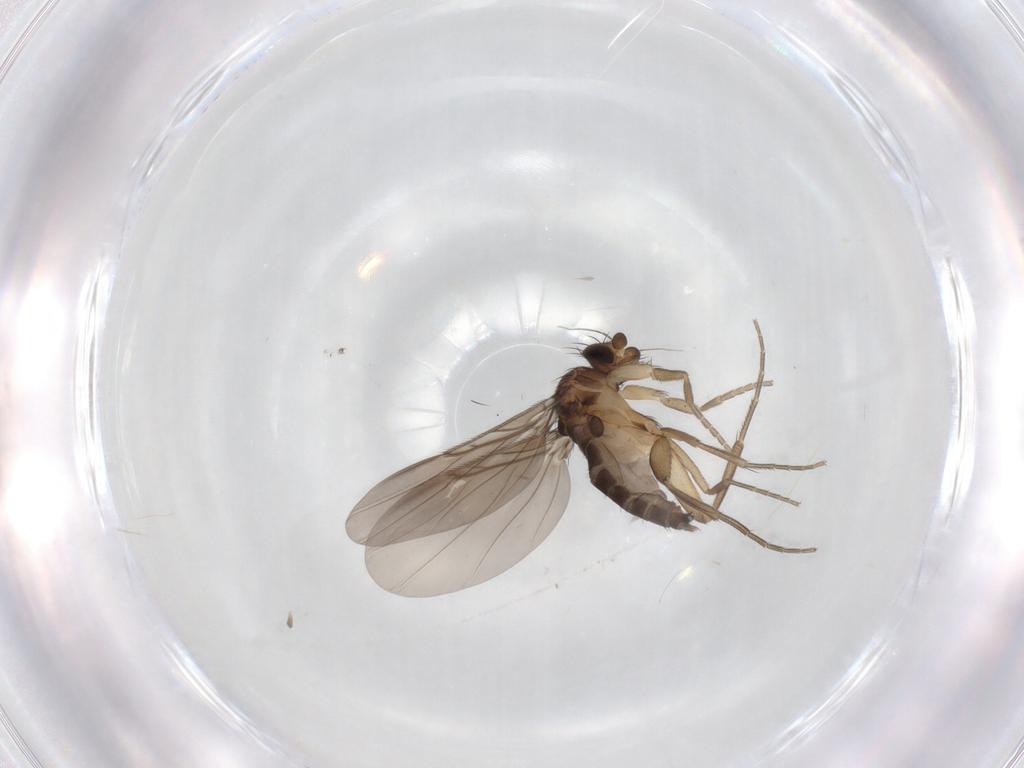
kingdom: Animalia
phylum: Arthropoda
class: Insecta
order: Diptera
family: Phoridae
